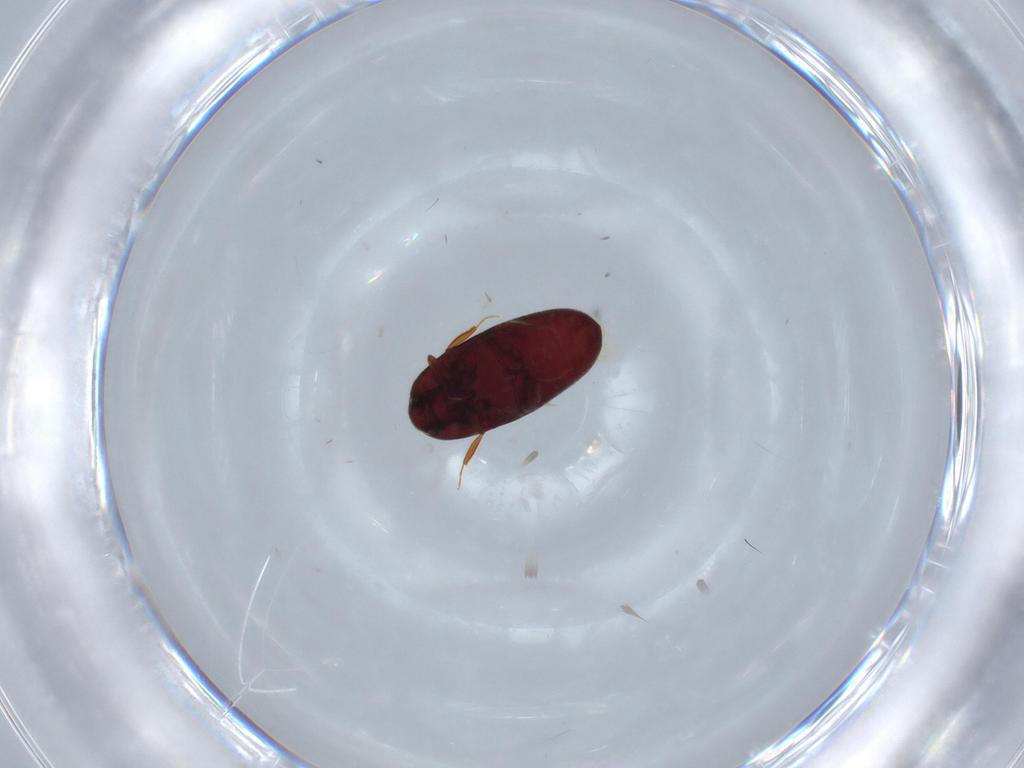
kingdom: Animalia
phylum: Arthropoda
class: Insecta
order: Coleoptera
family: Throscidae
